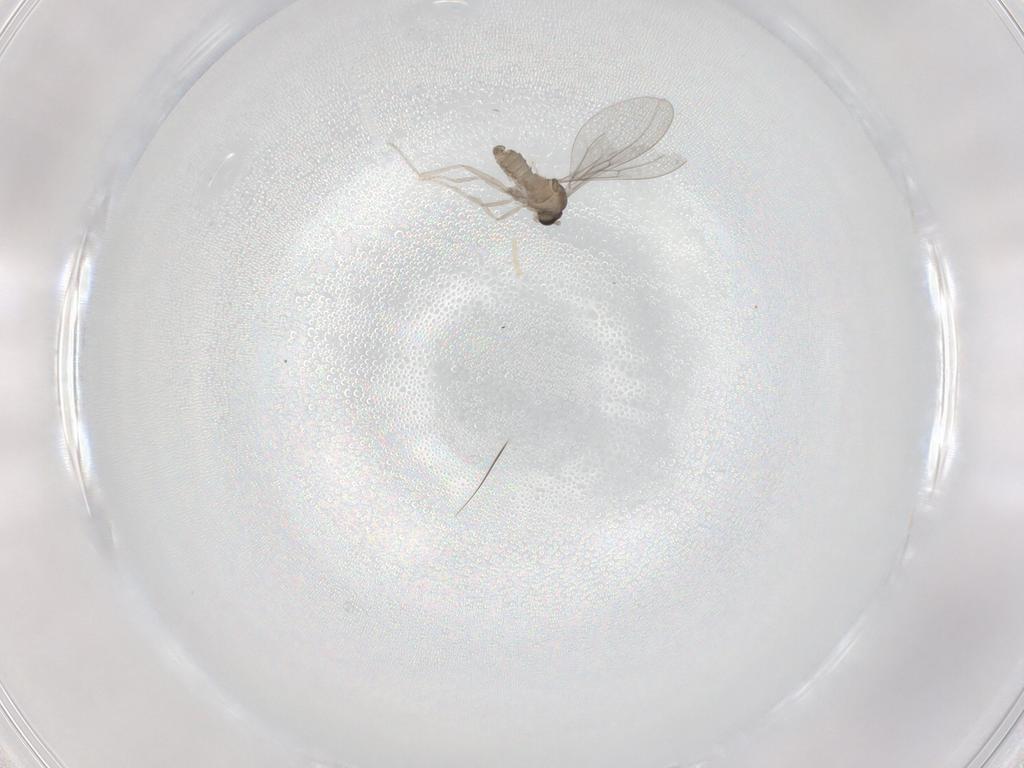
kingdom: Animalia
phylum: Arthropoda
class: Insecta
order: Diptera
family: Cecidomyiidae
